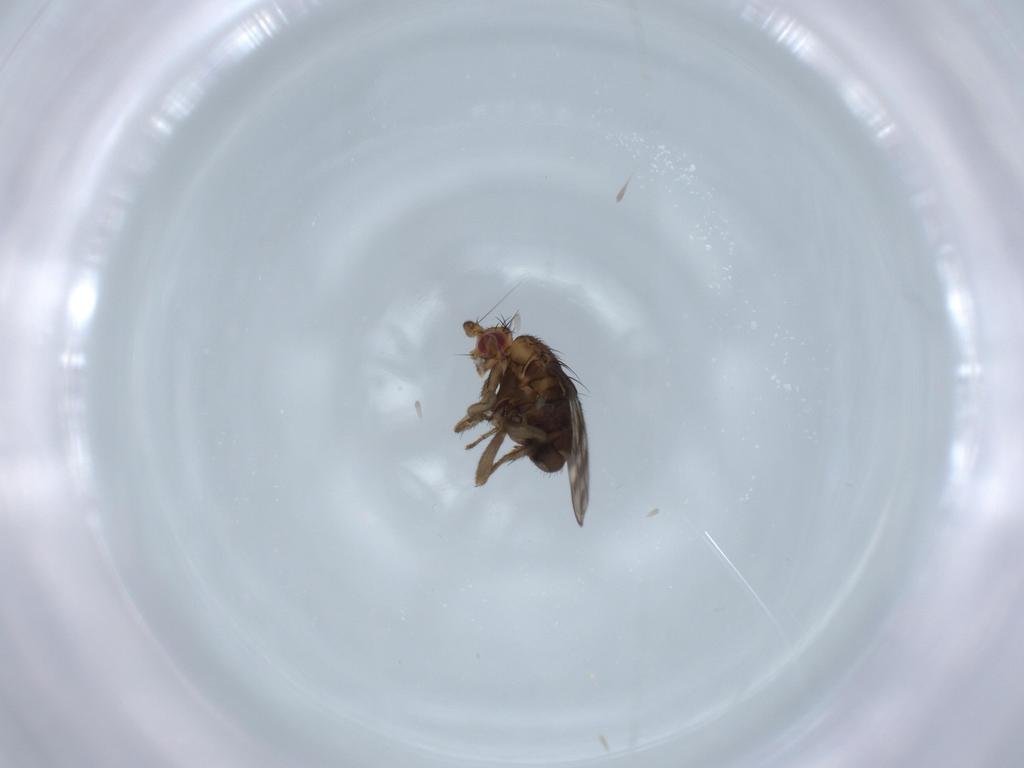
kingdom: Animalia
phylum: Arthropoda
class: Insecta
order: Diptera
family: Sphaeroceridae
